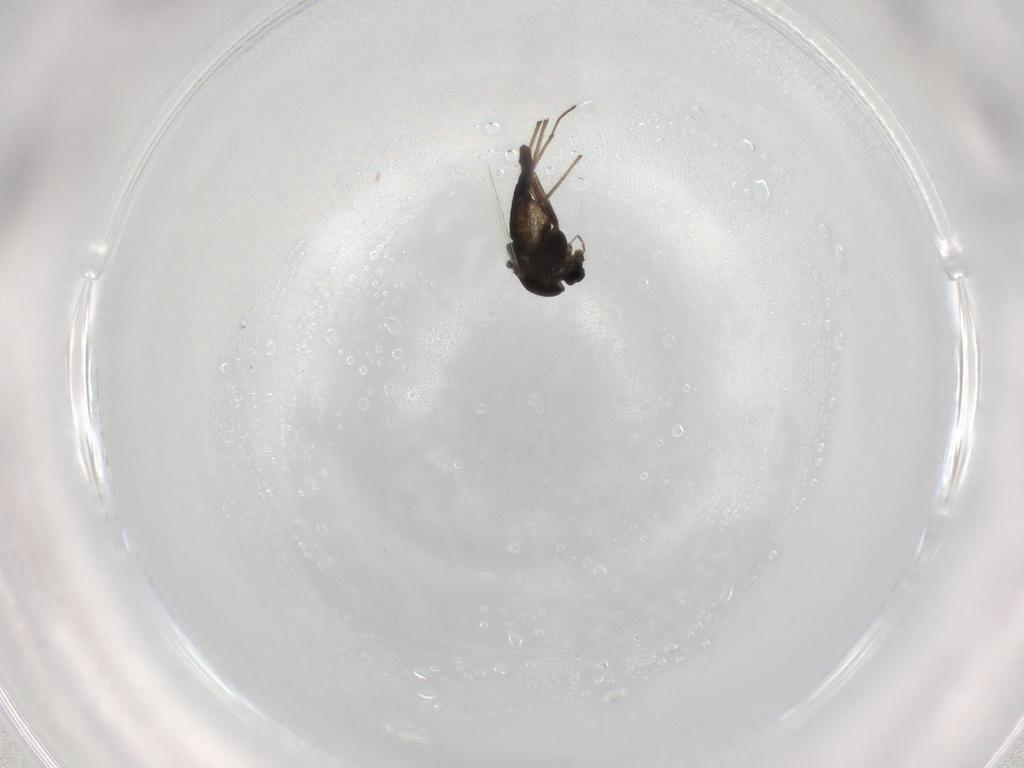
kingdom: Animalia
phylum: Arthropoda
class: Insecta
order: Diptera
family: Chironomidae
